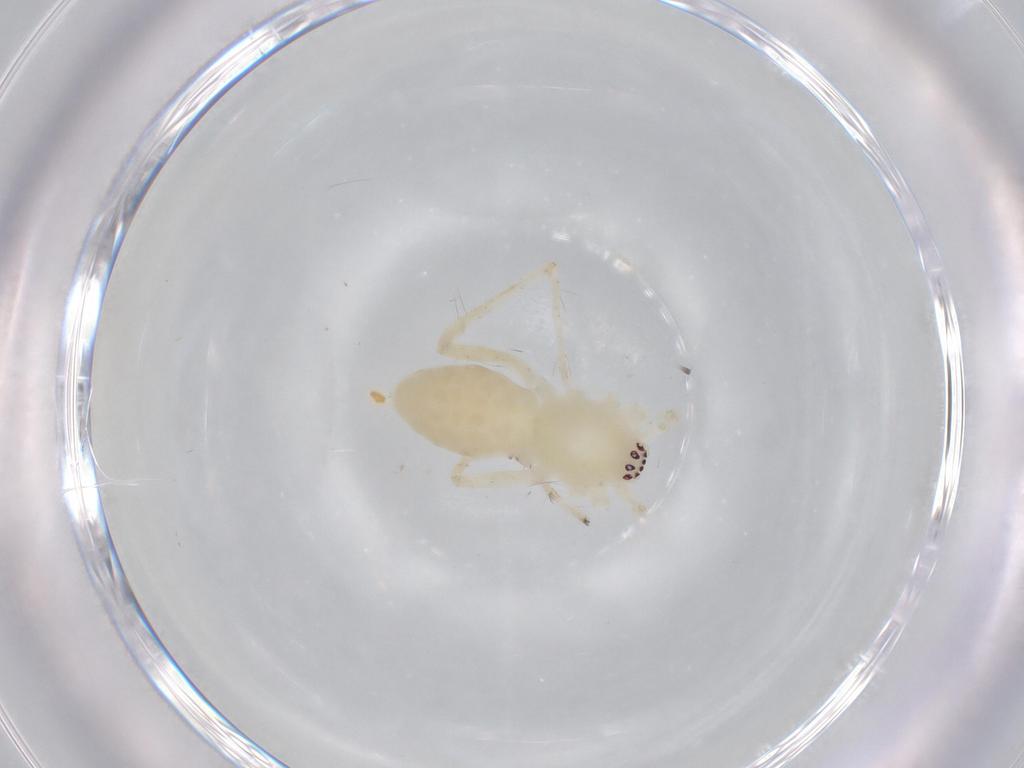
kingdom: Animalia
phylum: Arthropoda
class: Arachnida
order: Araneae
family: Anyphaenidae
